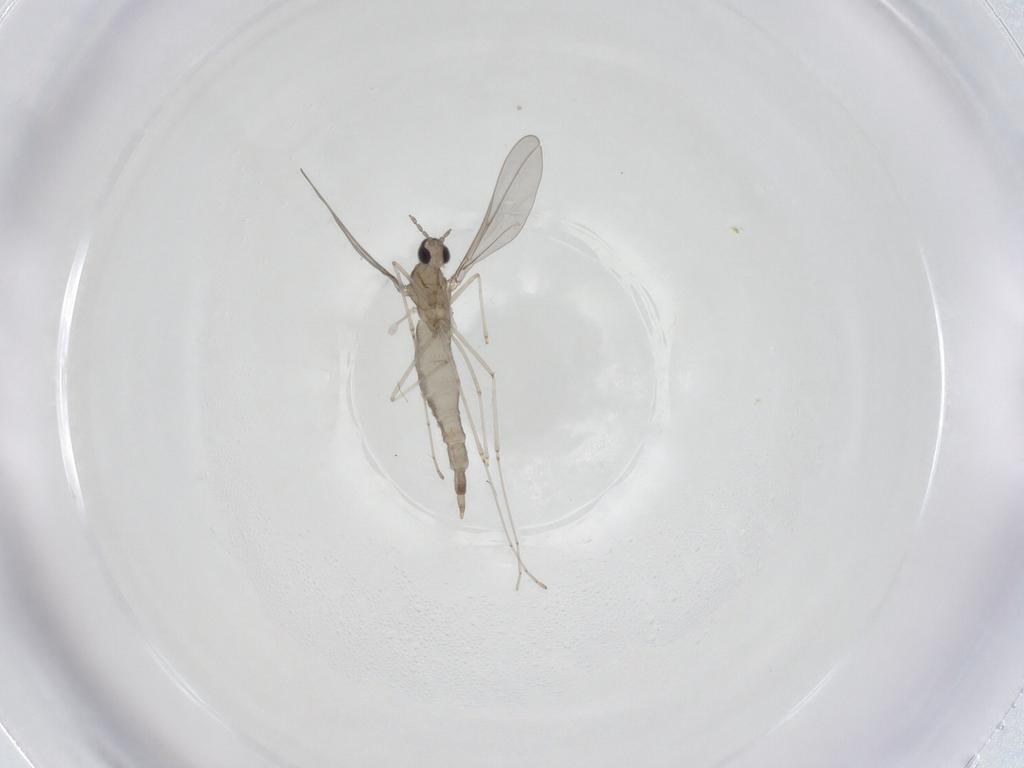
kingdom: Animalia
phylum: Arthropoda
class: Insecta
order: Diptera
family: Cecidomyiidae
